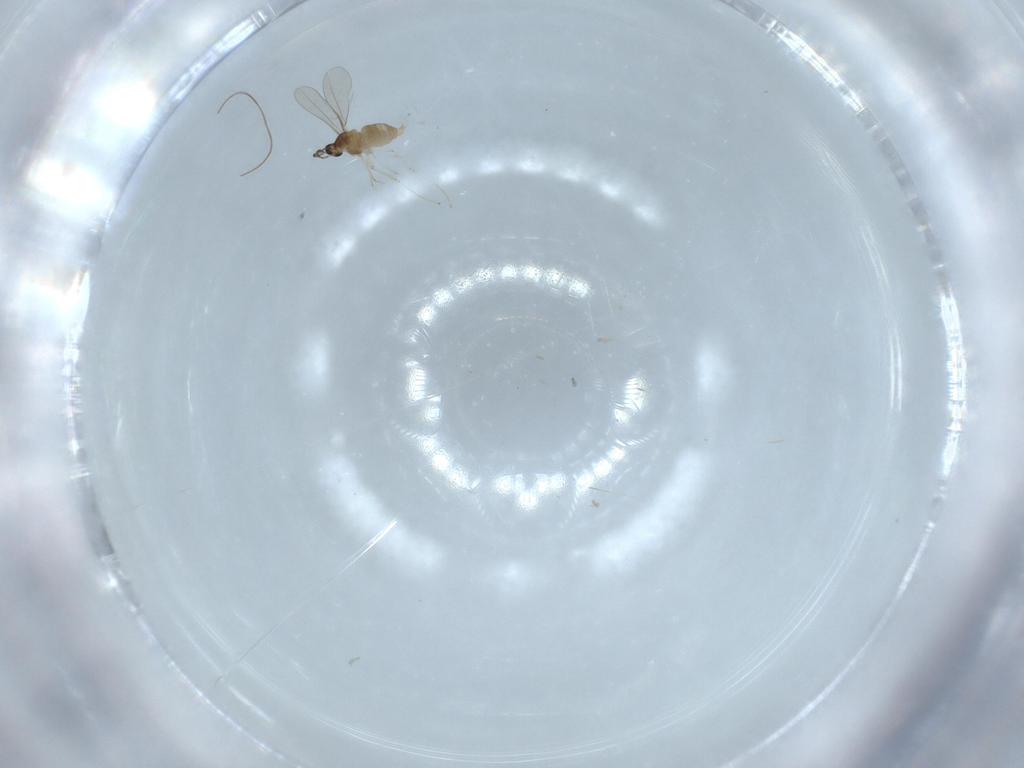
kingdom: Animalia
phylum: Arthropoda
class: Insecta
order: Diptera
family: Cecidomyiidae
